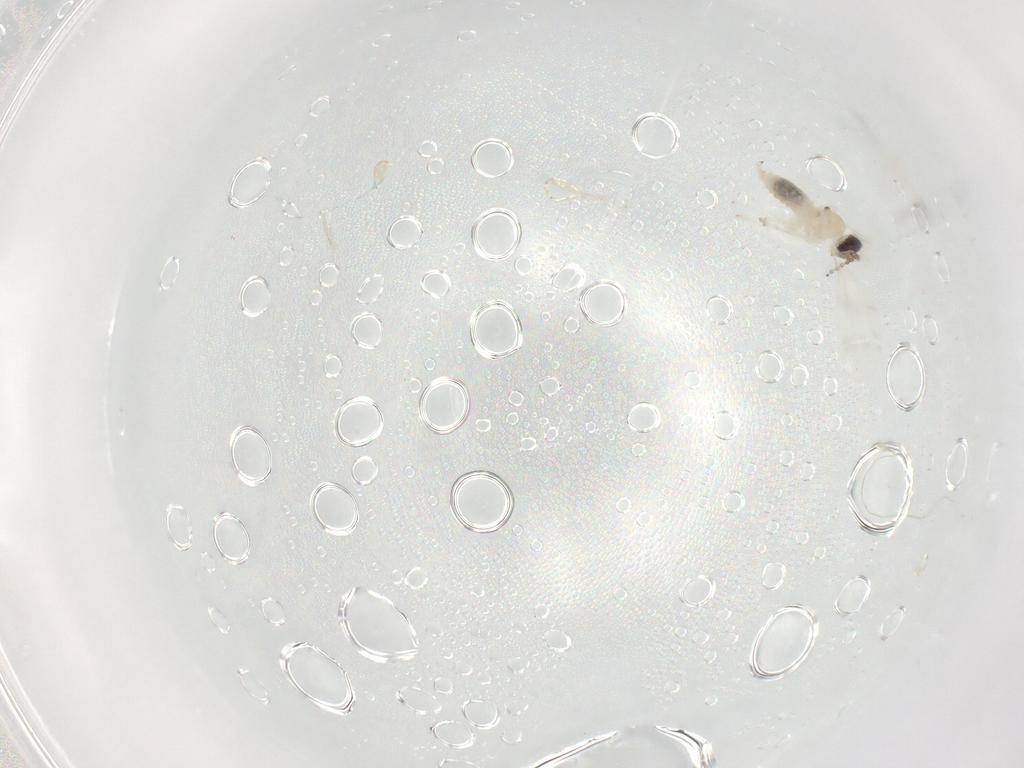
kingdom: Animalia
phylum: Arthropoda
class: Insecta
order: Diptera
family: Phoridae
